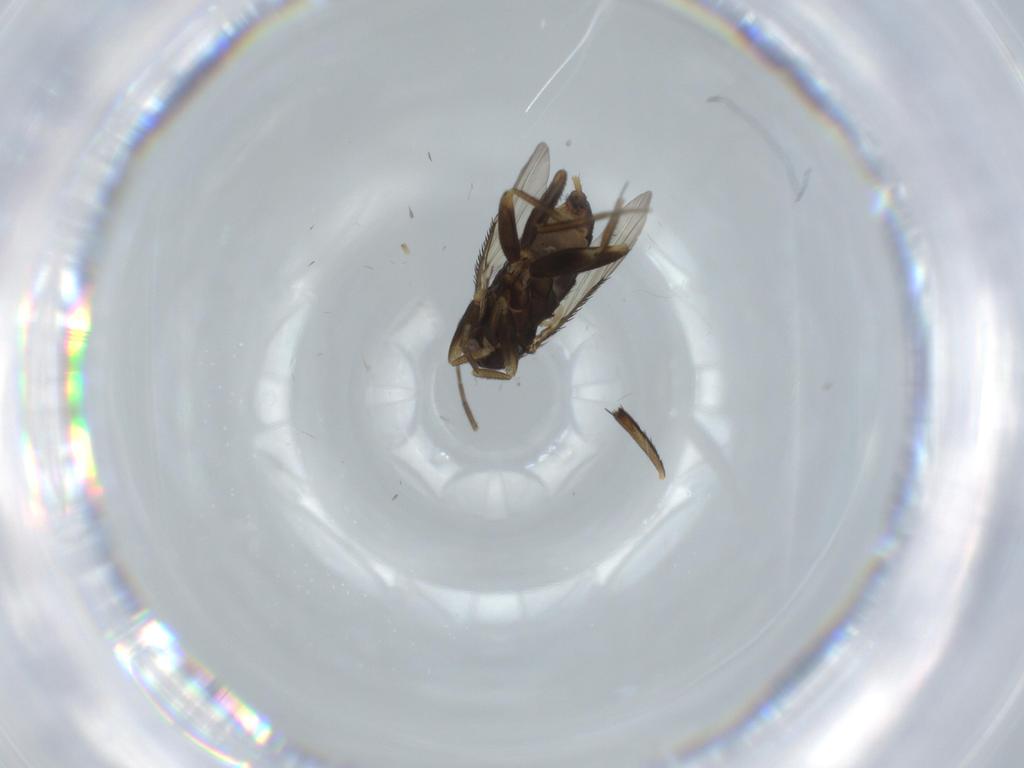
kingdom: Animalia
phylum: Arthropoda
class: Insecta
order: Diptera
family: Phoridae
